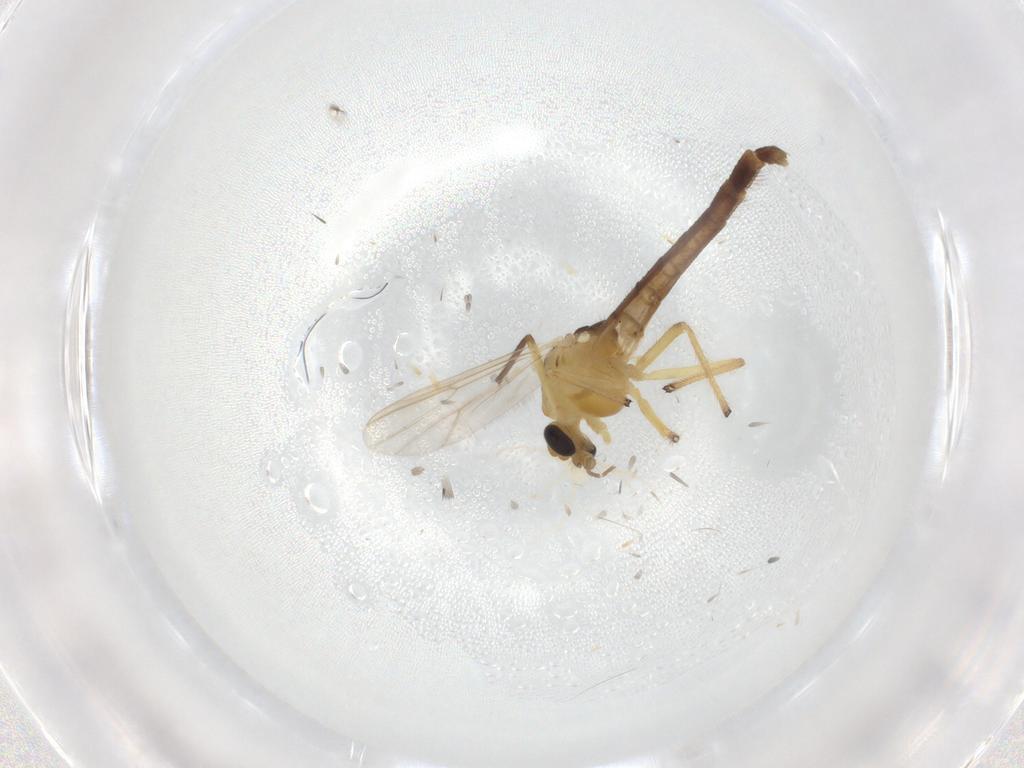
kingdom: Animalia
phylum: Arthropoda
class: Insecta
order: Diptera
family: Chironomidae
